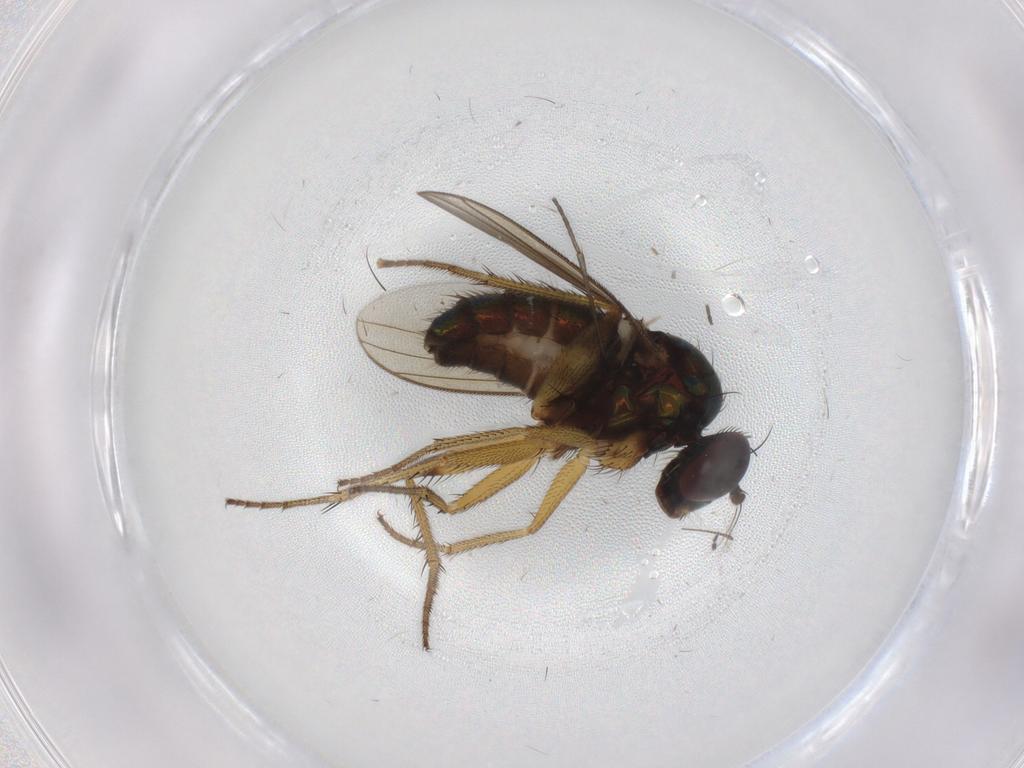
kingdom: Animalia
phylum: Arthropoda
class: Insecta
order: Diptera
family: Dolichopodidae
